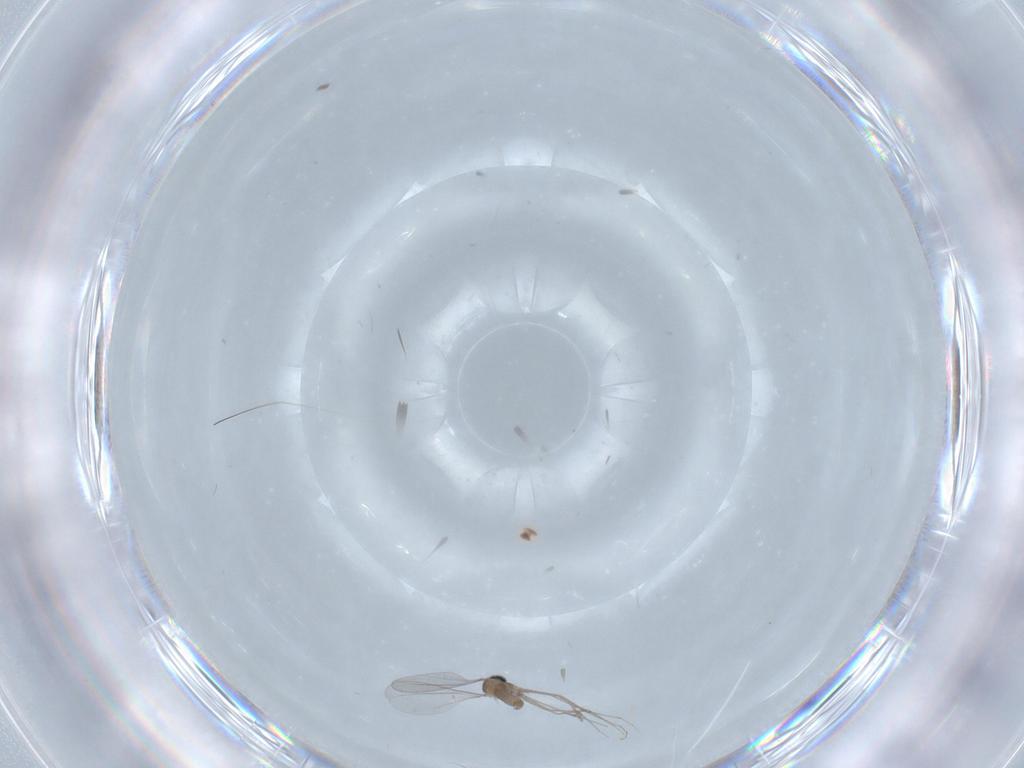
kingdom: Animalia
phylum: Arthropoda
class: Insecta
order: Diptera
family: Cecidomyiidae
